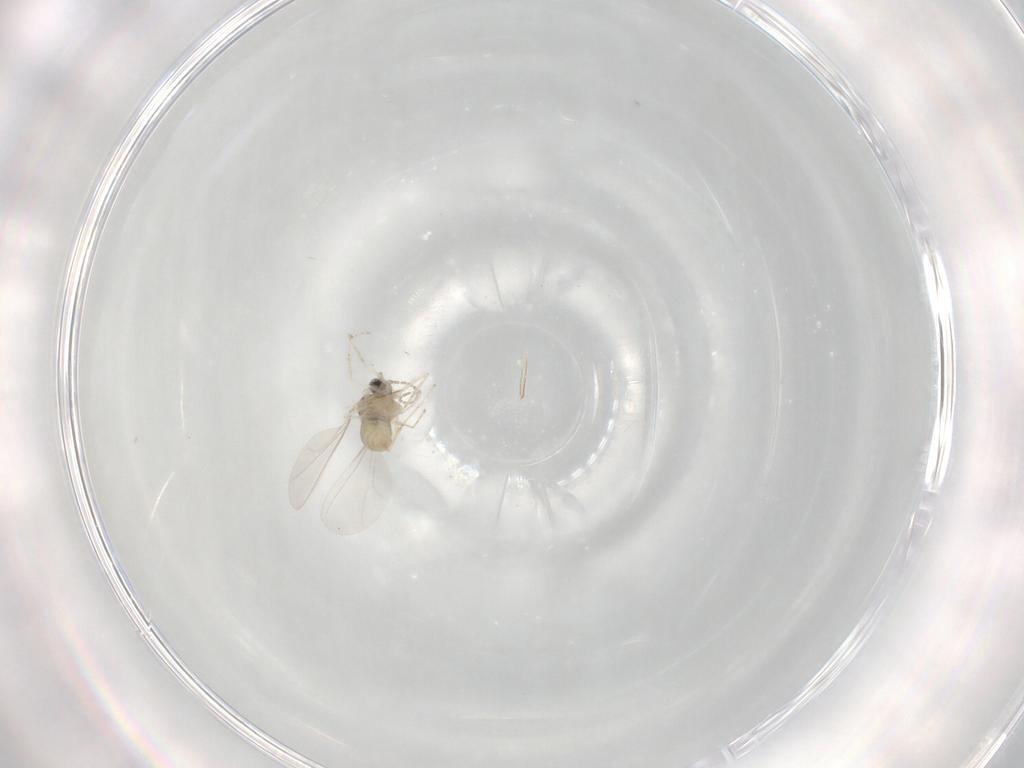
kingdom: Animalia
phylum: Arthropoda
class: Insecta
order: Diptera
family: Cecidomyiidae
